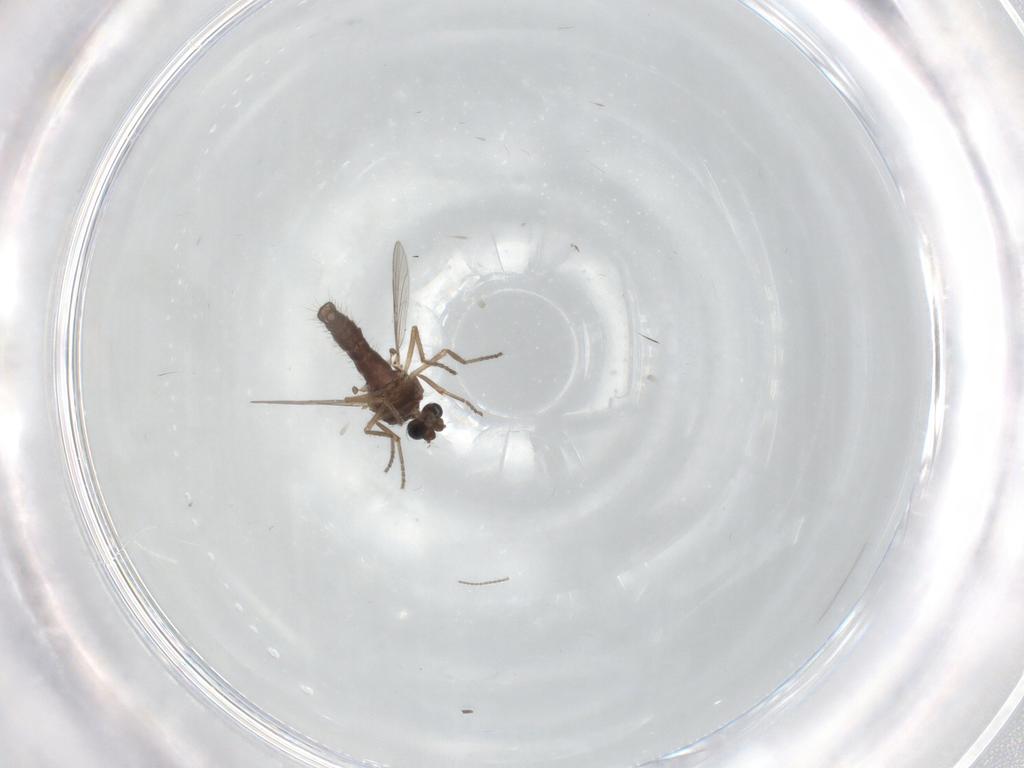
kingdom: Animalia
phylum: Arthropoda
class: Insecta
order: Diptera
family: Ceratopogonidae
